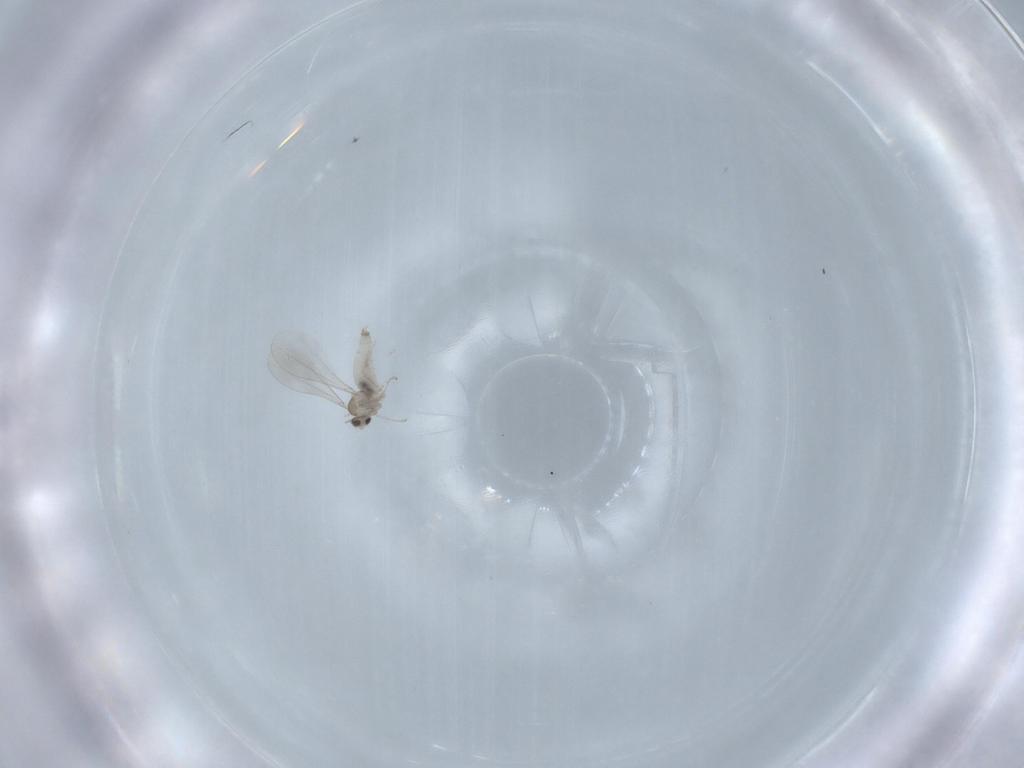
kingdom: Animalia
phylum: Arthropoda
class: Insecta
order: Diptera
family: Cecidomyiidae
